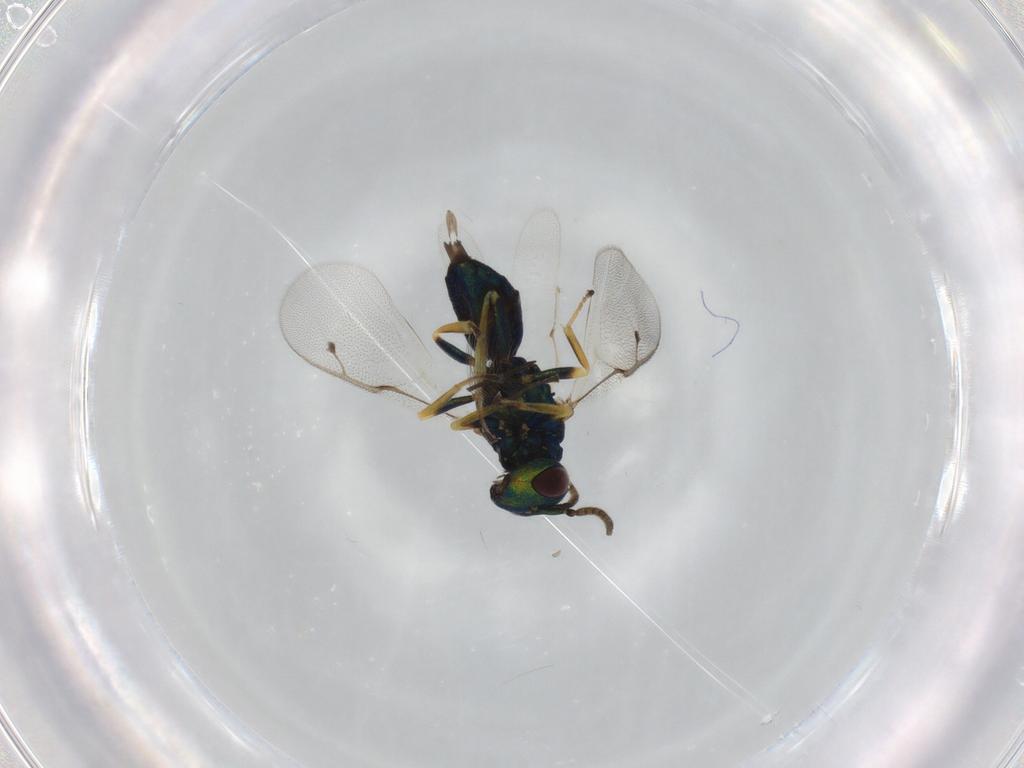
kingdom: Animalia
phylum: Arthropoda
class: Insecta
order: Hymenoptera
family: Pteromalidae
